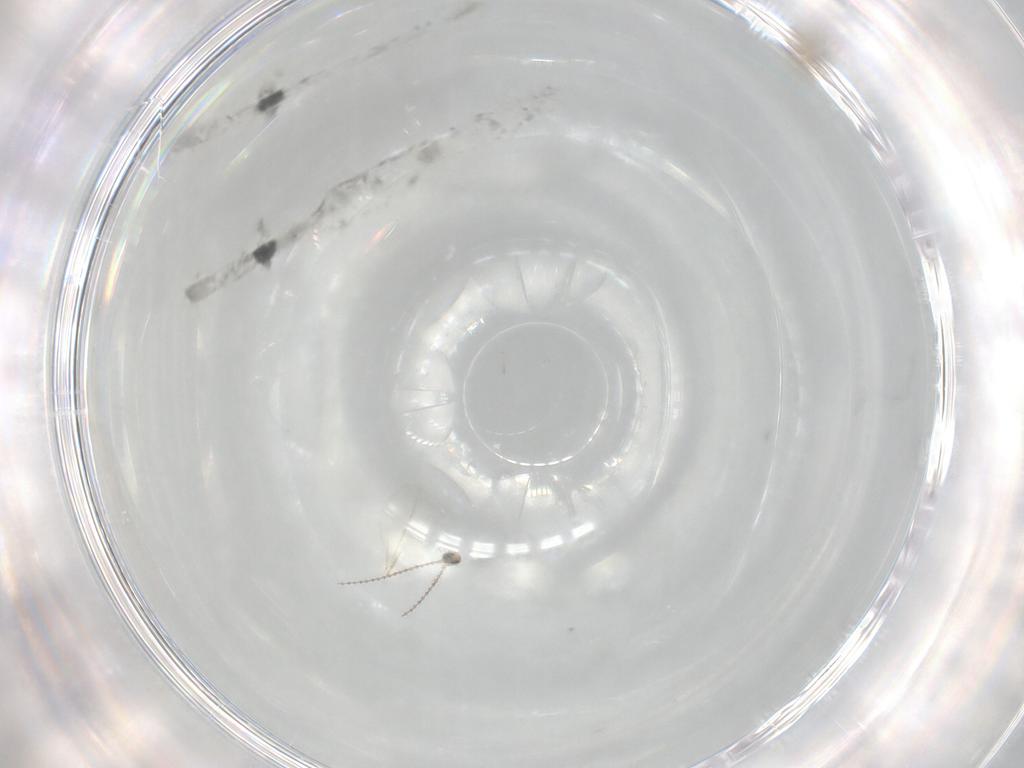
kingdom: Animalia
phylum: Arthropoda
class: Insecta
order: Diptera
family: Cecidomyiidae
